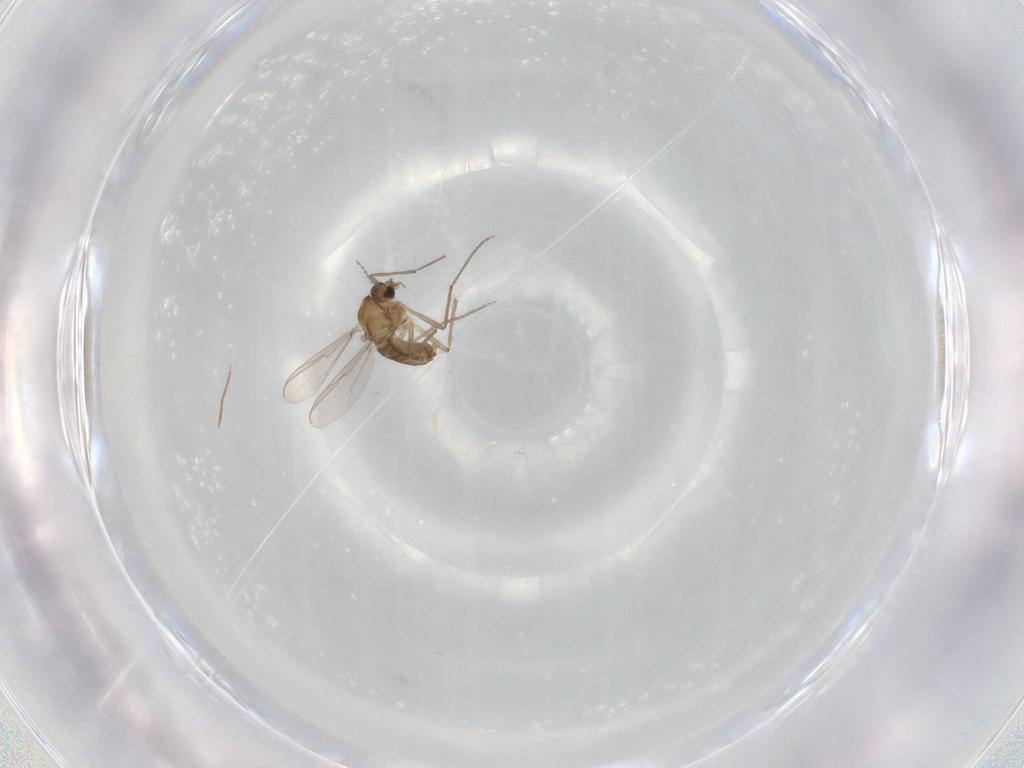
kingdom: Animalia
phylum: Arthropoda
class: Insecta
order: Diptera
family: Chironomidae
